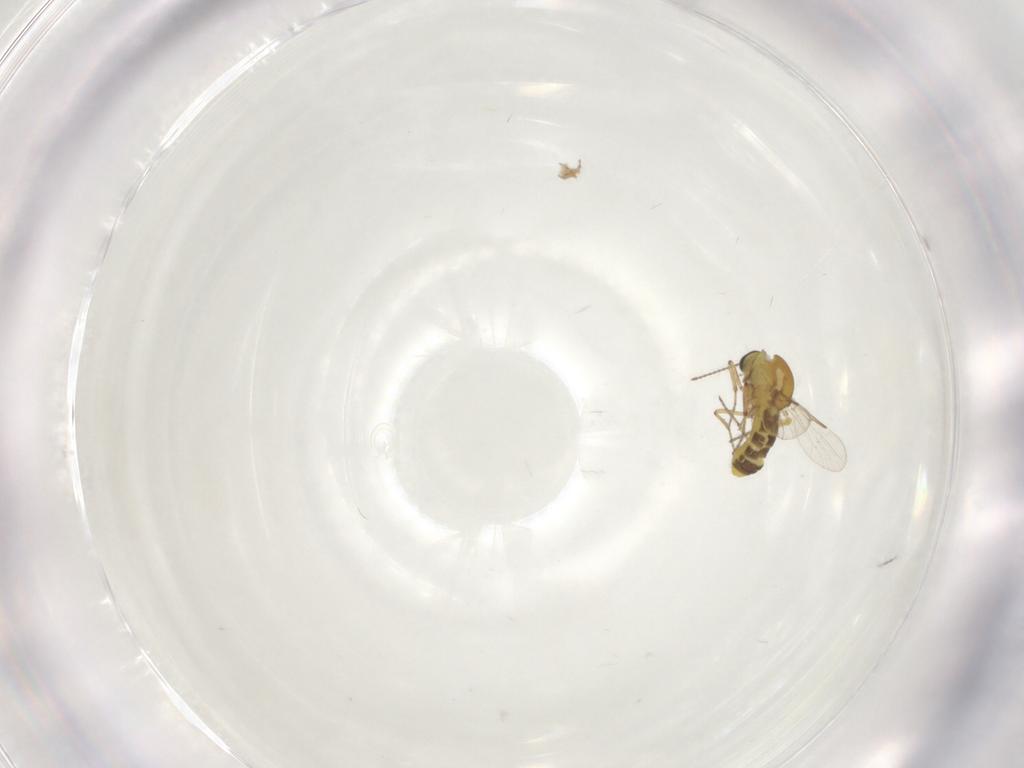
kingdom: Animalia
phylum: Arthropoda
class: Insecta
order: Diptera
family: Ceratopogonidae
